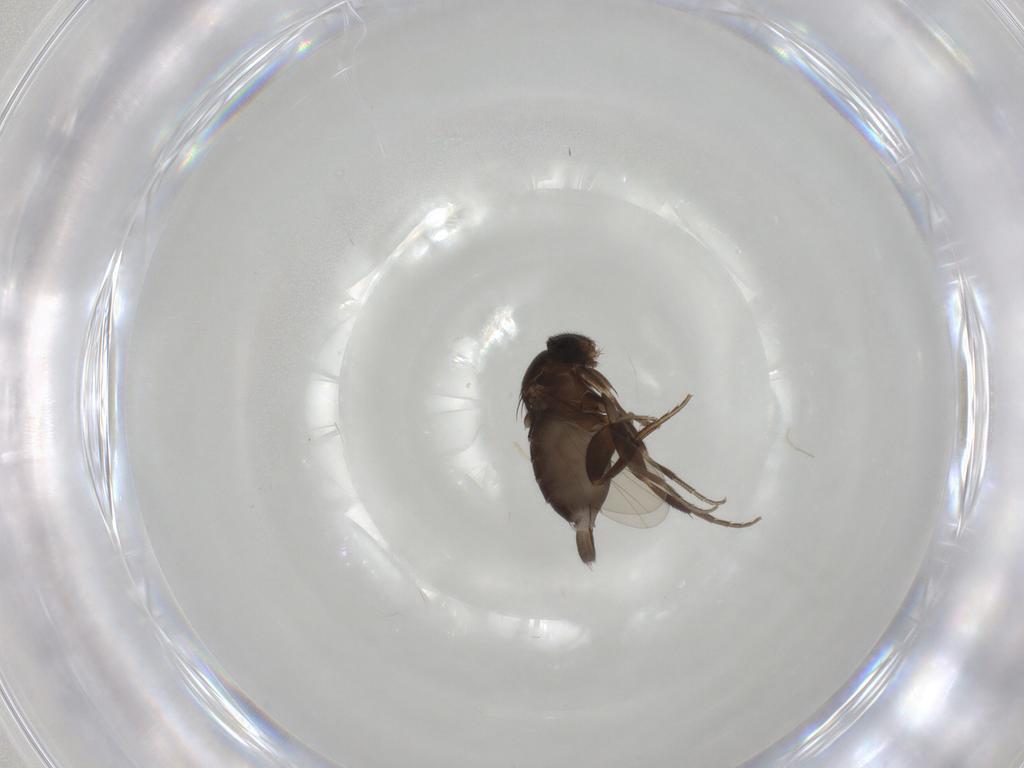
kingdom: Animalia
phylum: Arthropoda
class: Insecta
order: Diptera
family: Phoridae
